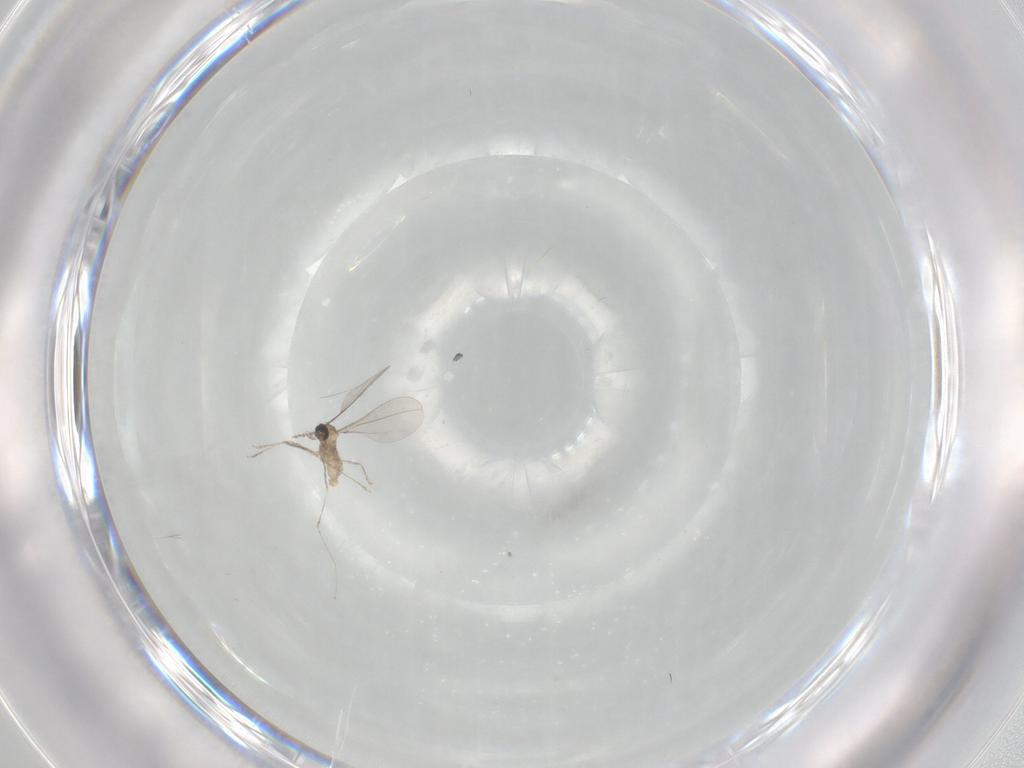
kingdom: Animalia
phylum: Arthropoda
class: Insecta
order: Diptera
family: Cecidomyiidae
